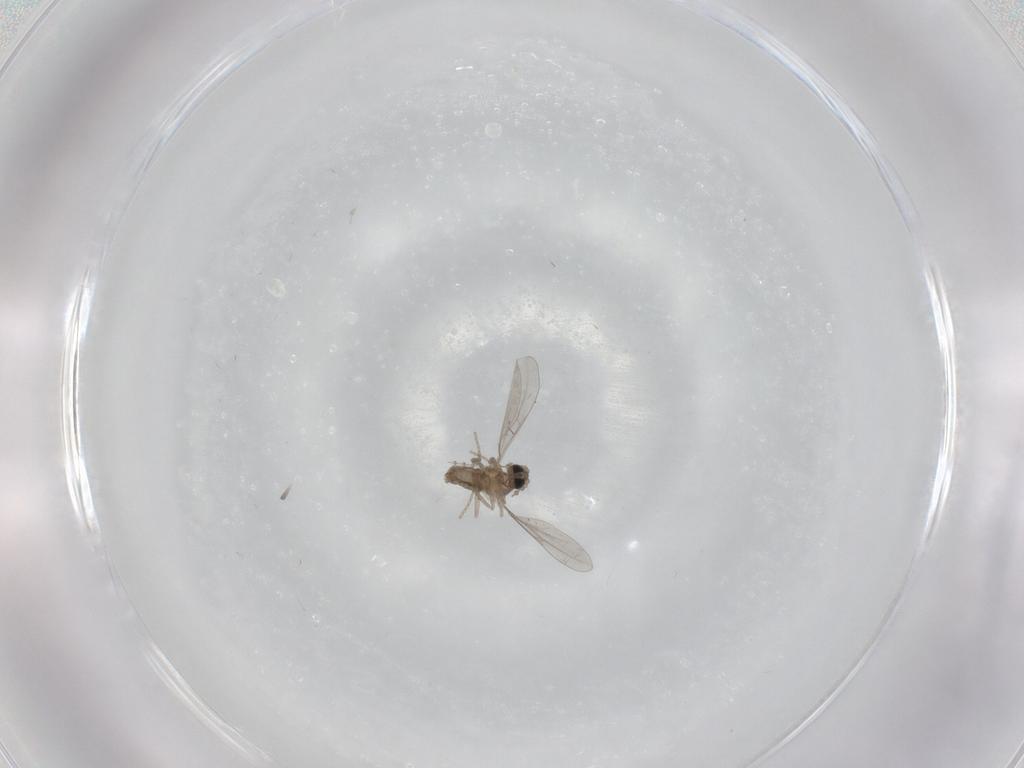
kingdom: Animalia
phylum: Arthropoda
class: Insecta
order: Diptera
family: Cecidomyiidae
